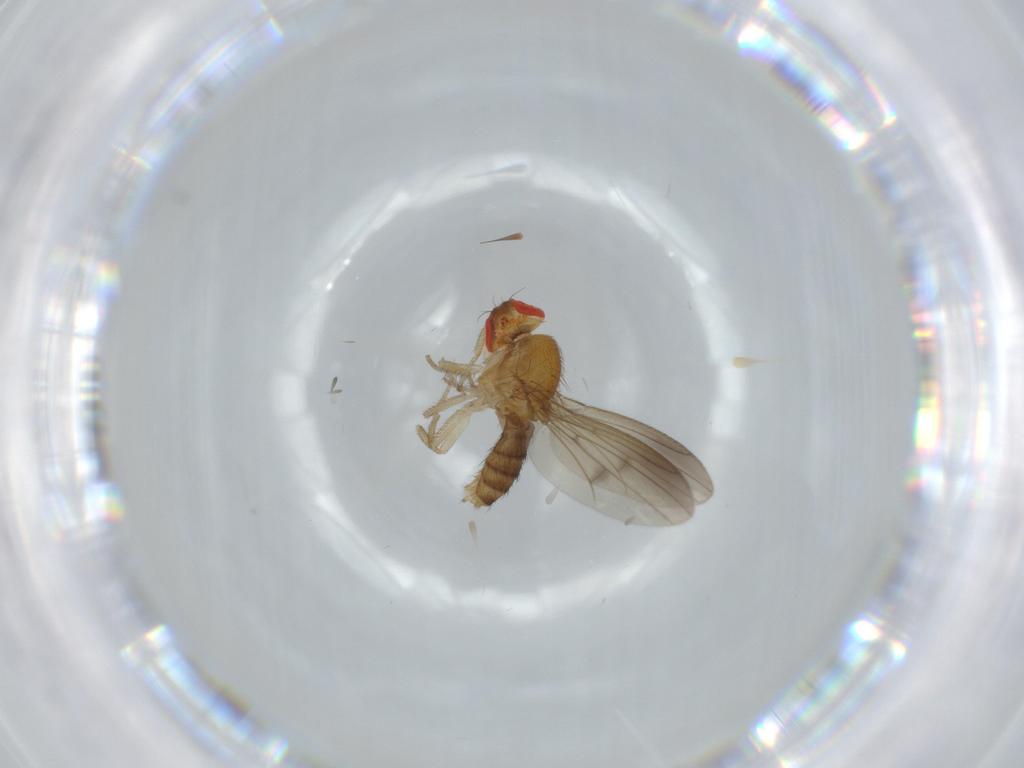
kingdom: Animalia
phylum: Arthropoda
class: Insecta
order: Diptera
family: Drosophilidae
